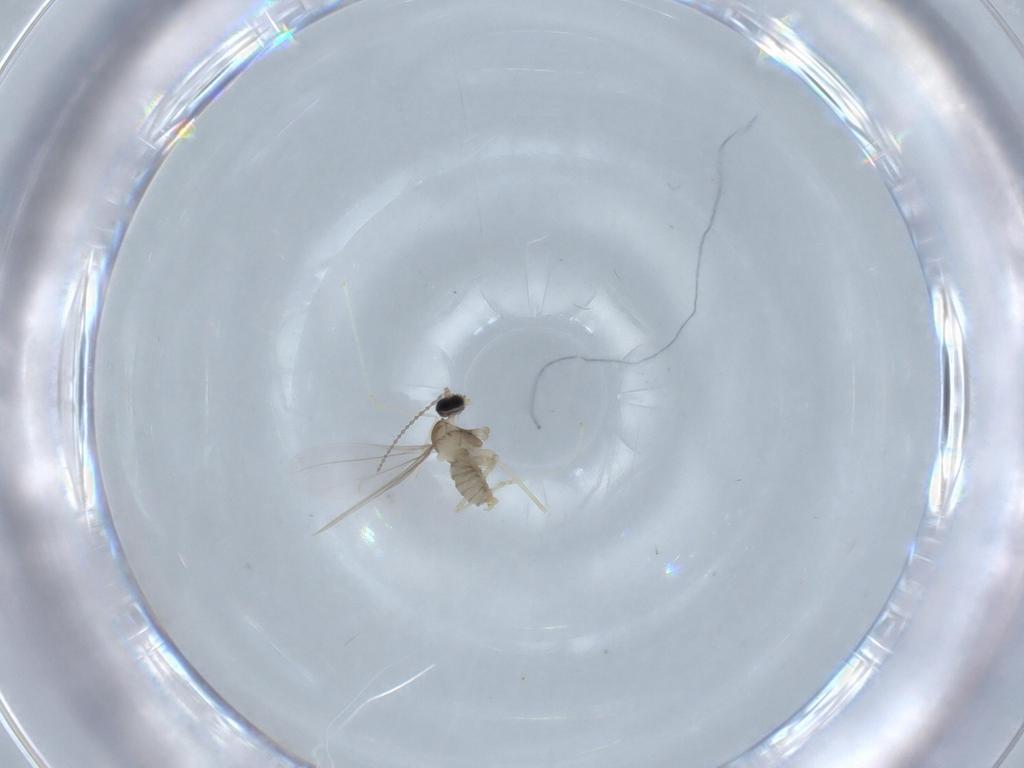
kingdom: Animalia
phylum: Arthropoda
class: Insecta
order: Diptera
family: Cecidomyiidae
